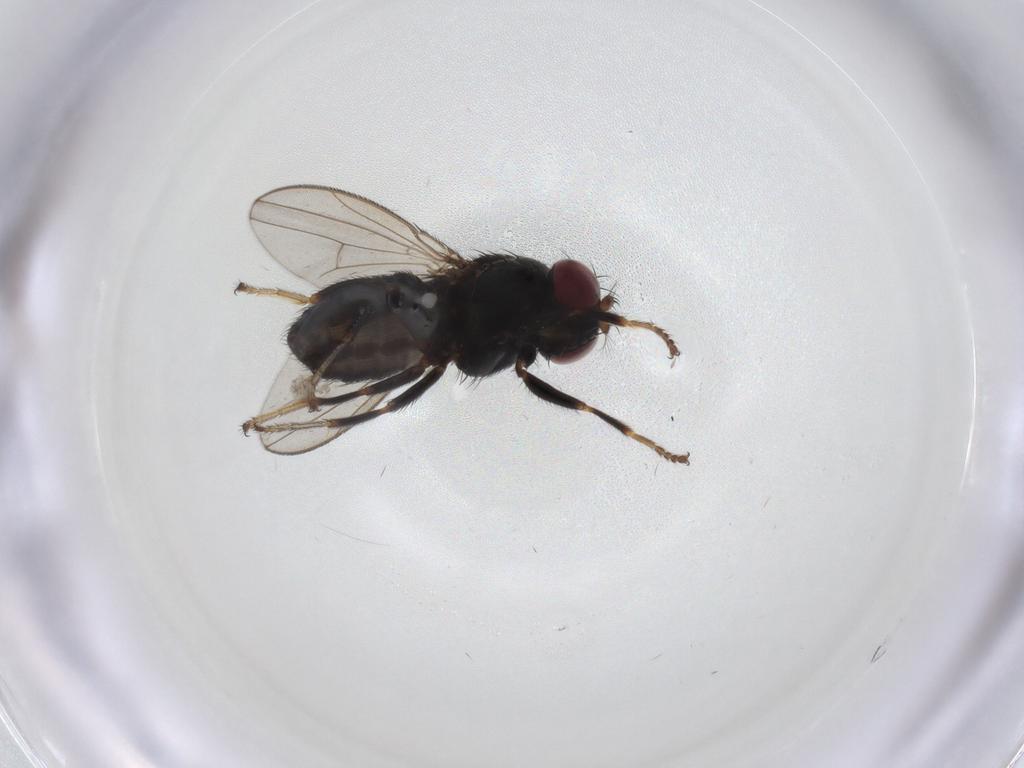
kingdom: Animalia
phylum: Arthropoda
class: Insecta
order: Diptera
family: Ephydridae
